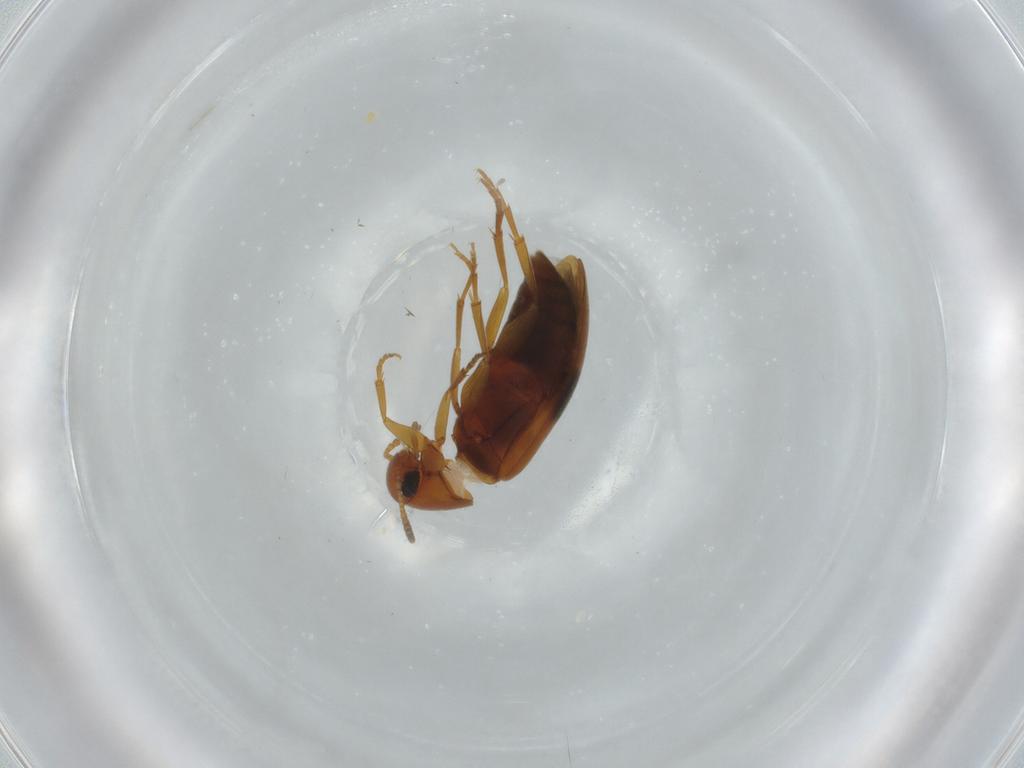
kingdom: Animalia
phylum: Arthropoda
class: Insecta
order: Coleoptera
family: Scraptiidae
